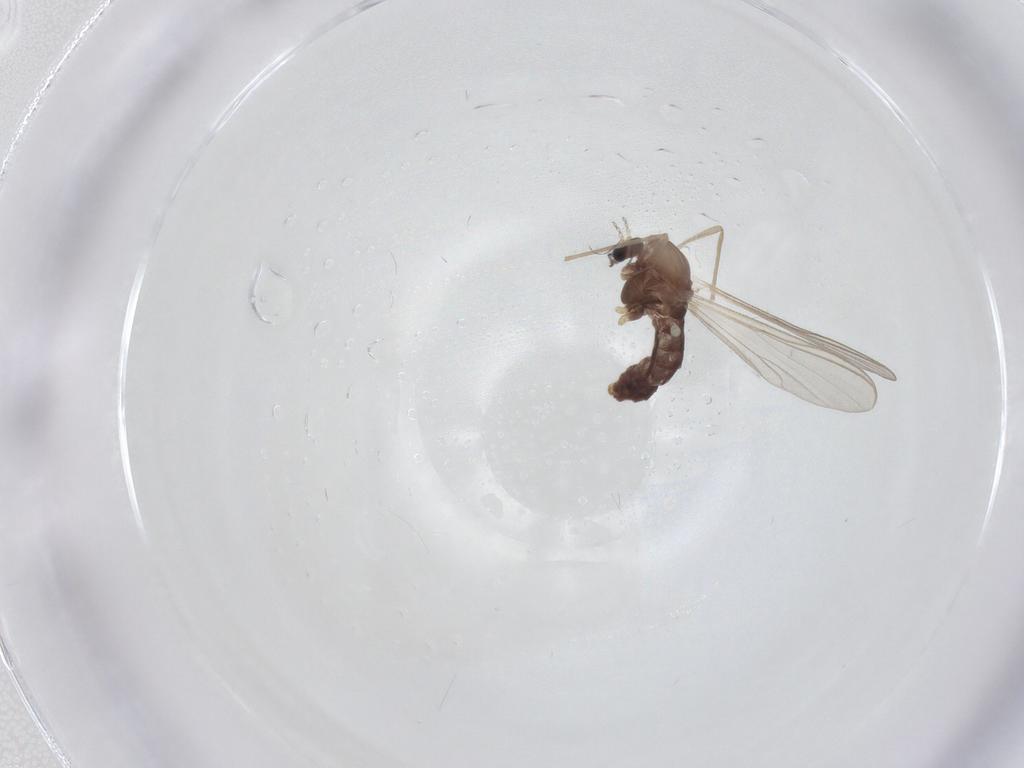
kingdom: Animalia
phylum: Arthropoda
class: Insecta
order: Diptera
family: Chironomidae
